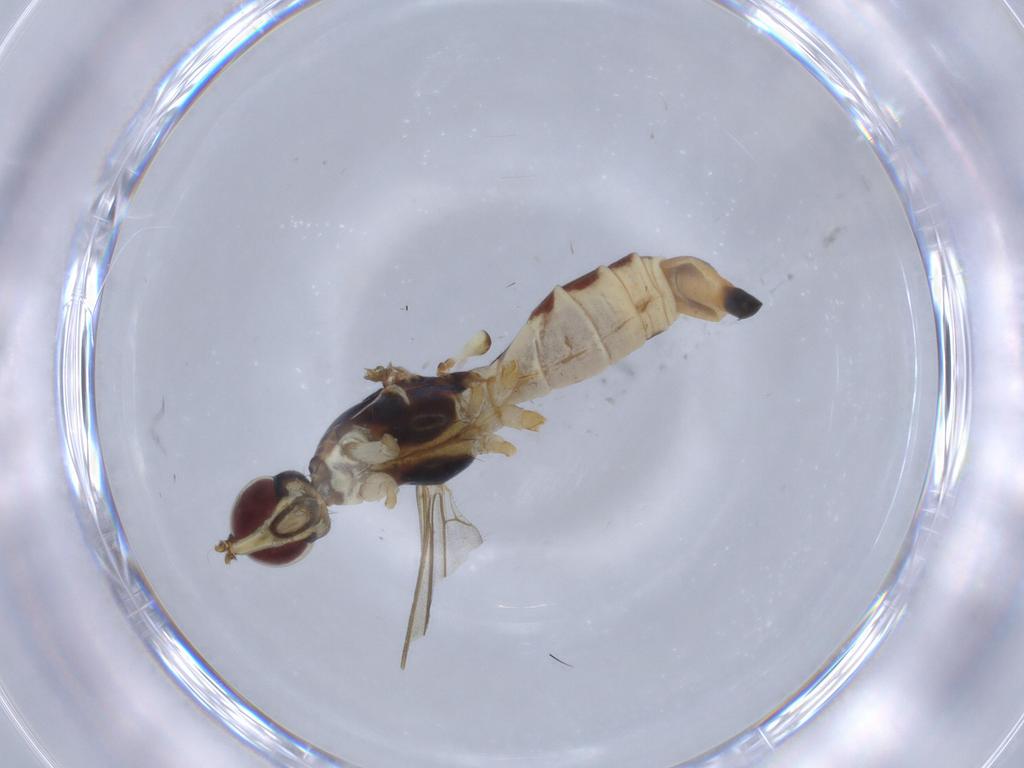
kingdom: Animalia
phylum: Arthropoda
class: Insecta
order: Diptera
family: Micropezidae
